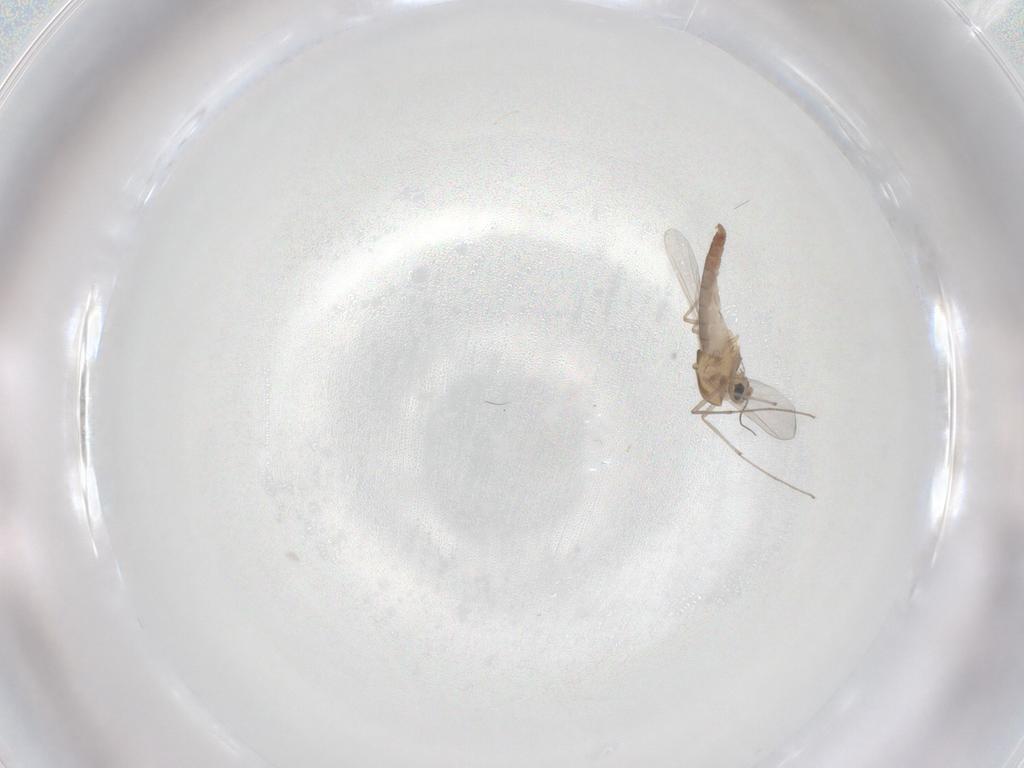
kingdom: Animalia
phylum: Arthropoda
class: Insecta
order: Diptera
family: Chironomidae
